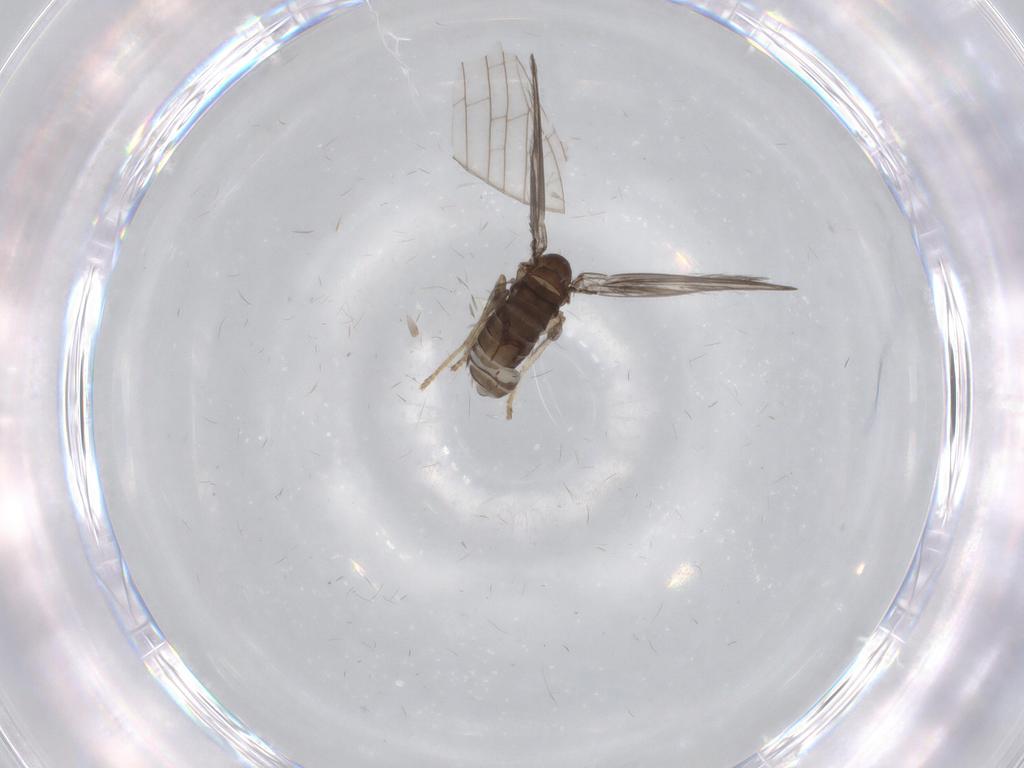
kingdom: Animalia
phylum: Arthropoda
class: Insecta
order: Diptera
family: Psychodidae
